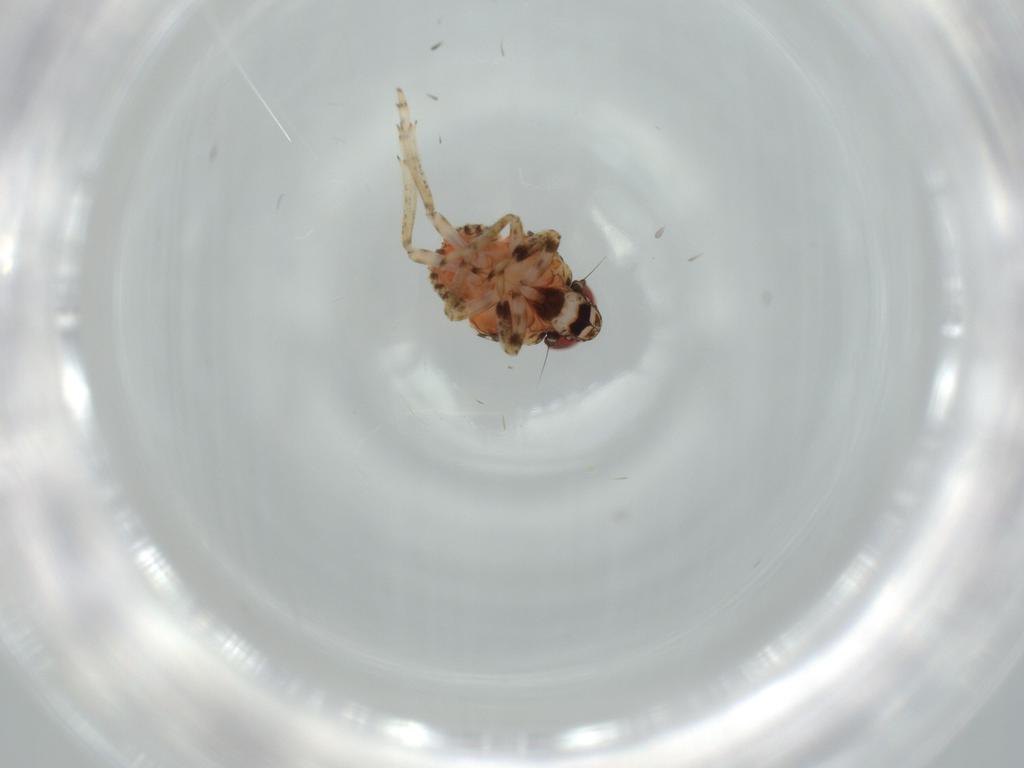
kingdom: Animalia
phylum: Arthropoda
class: Insecta
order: Hemiptera
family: Issidae
